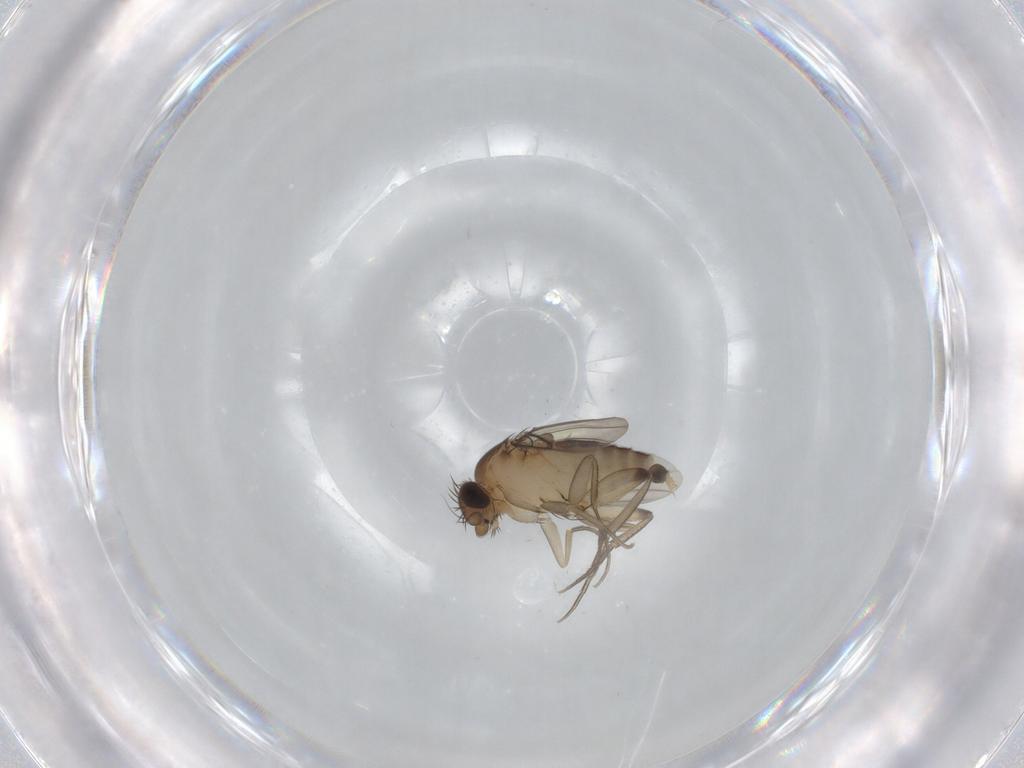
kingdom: Animalia
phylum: Arthropoda
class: Insecta
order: Diptera
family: Phoridae
